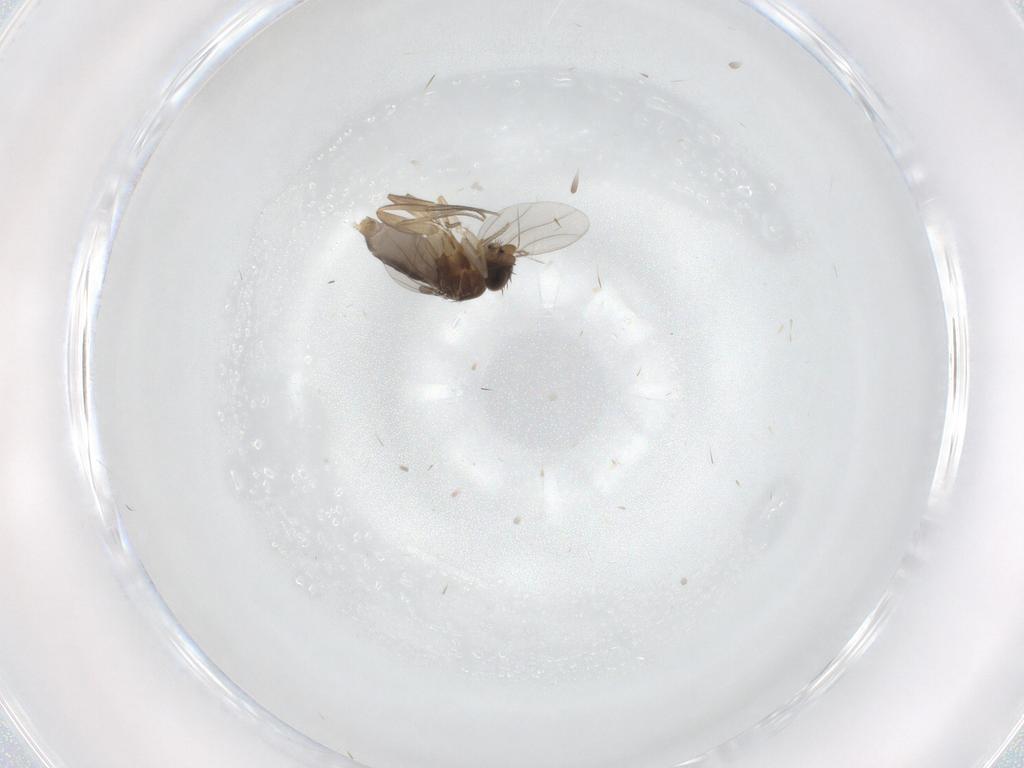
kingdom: Animalia
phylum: Arthropoda
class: Insecta
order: Diptera
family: Phoridae
